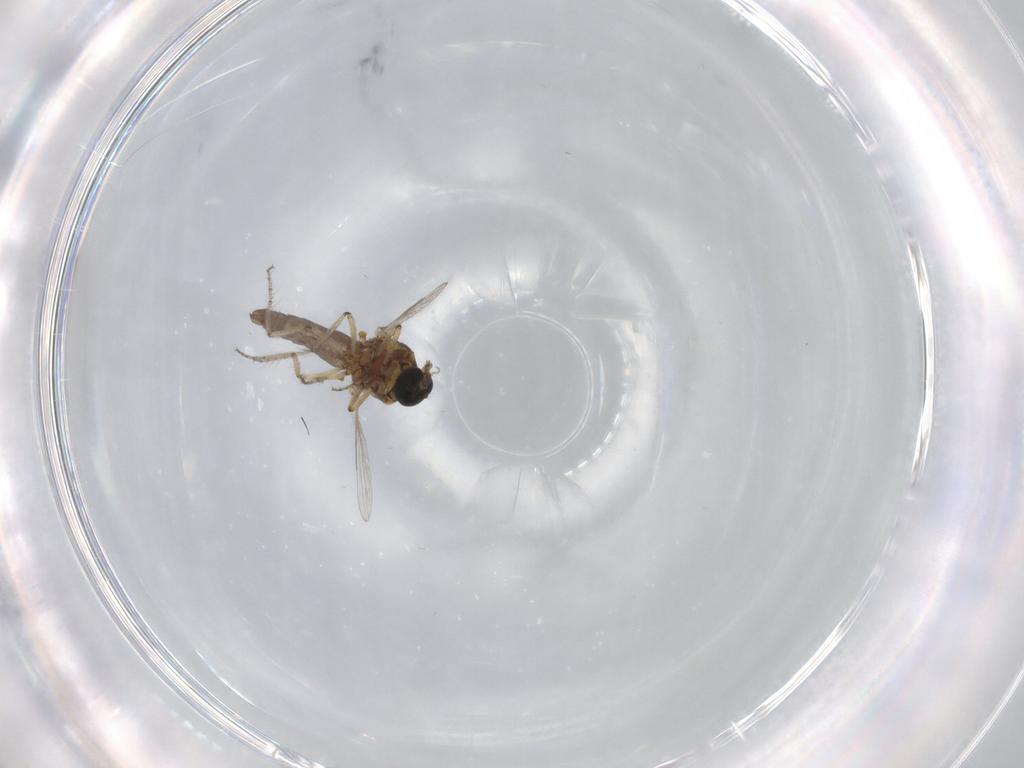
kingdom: Animalia
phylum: Arthropoda
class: Insecta
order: Diptera
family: Ceratopogonidae
